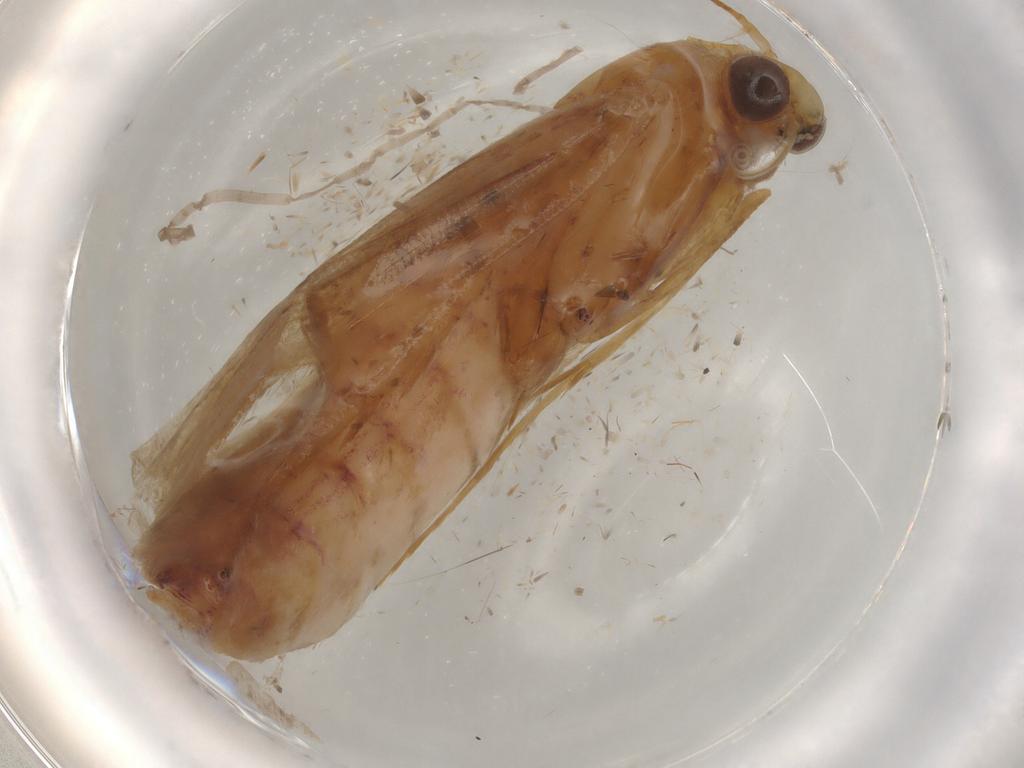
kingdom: Animalia
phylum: Arthropoda
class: Insecta
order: Lepidoptera
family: Pyralidae
